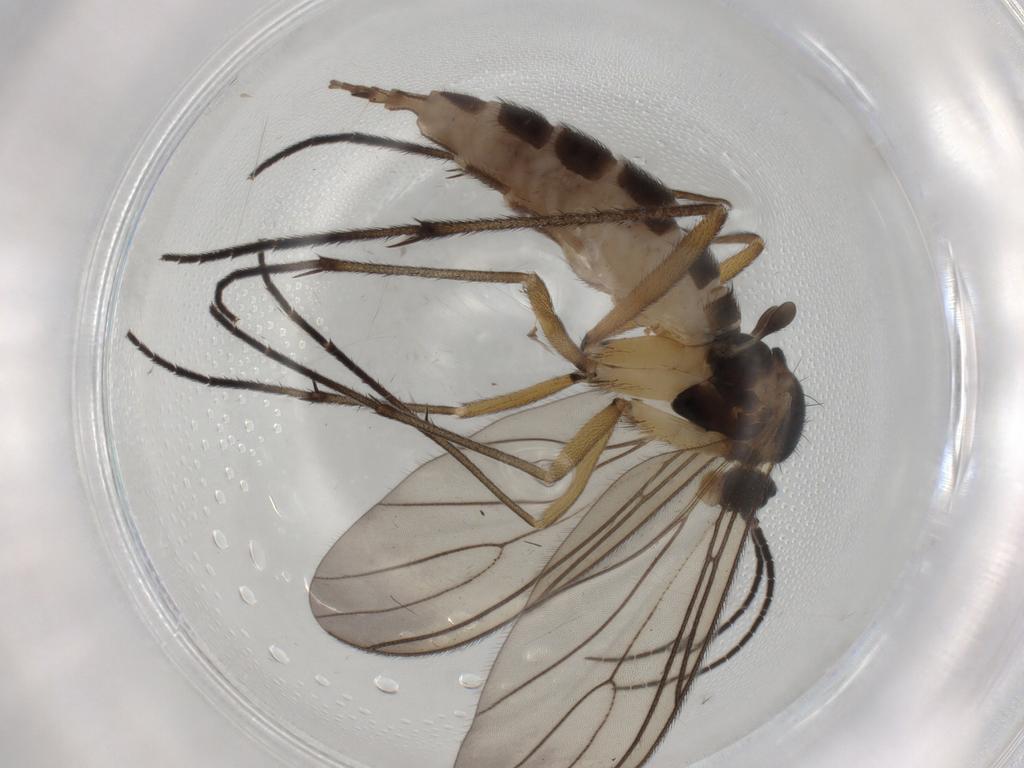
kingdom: Animalia
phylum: Arthropoda
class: Insecta
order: Diptera
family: Sciaridae
